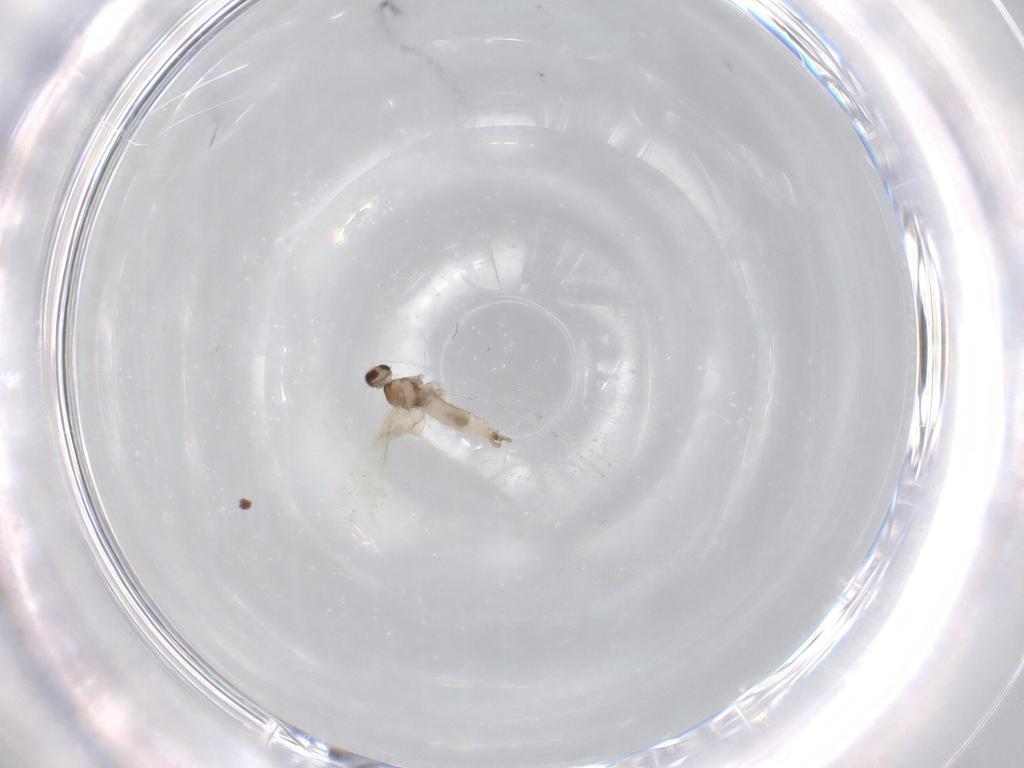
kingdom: Animalia
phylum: Arthropoda
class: Insecta
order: Diptera
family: Cecidomyiidae
